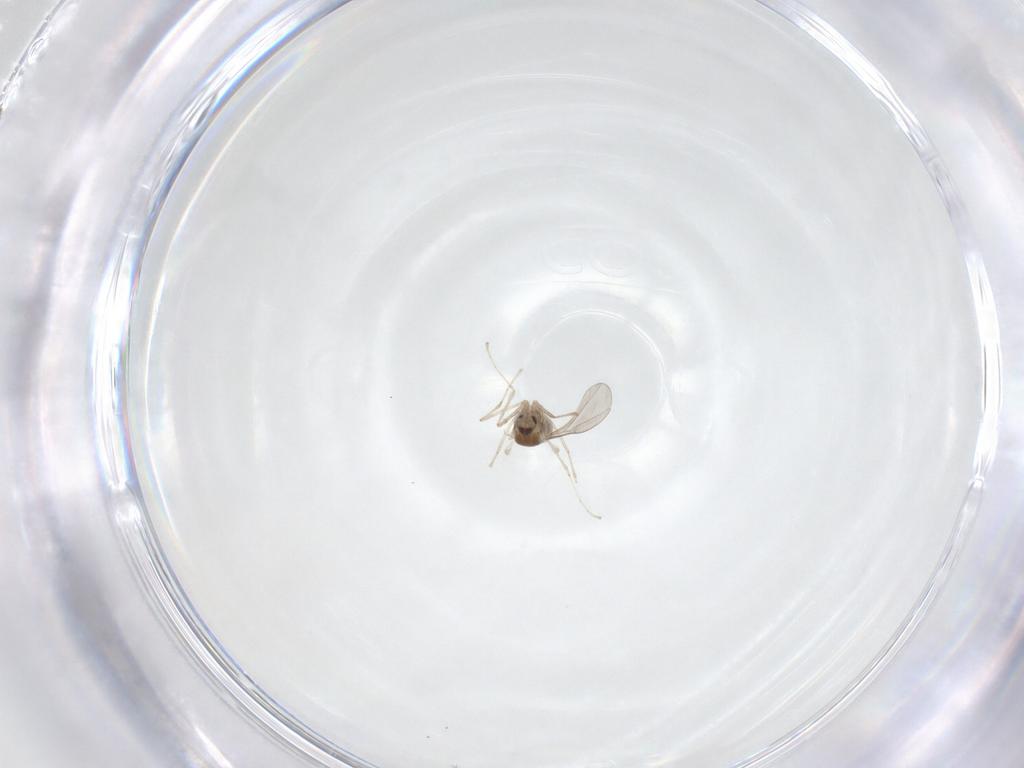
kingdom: Animalia
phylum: Arthropoda
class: Insecta
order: Diptera
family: Cecidomyiidae
